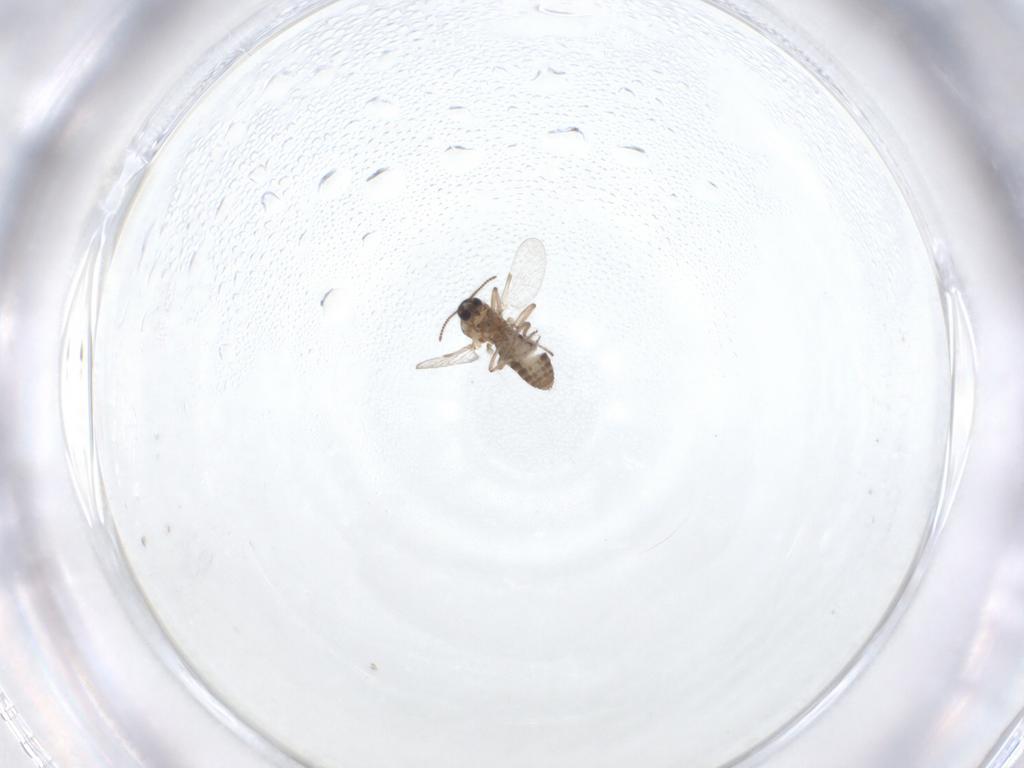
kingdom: Animalia
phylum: Arthropoda
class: Insecta
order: Diptera
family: Ceratopogonidae
